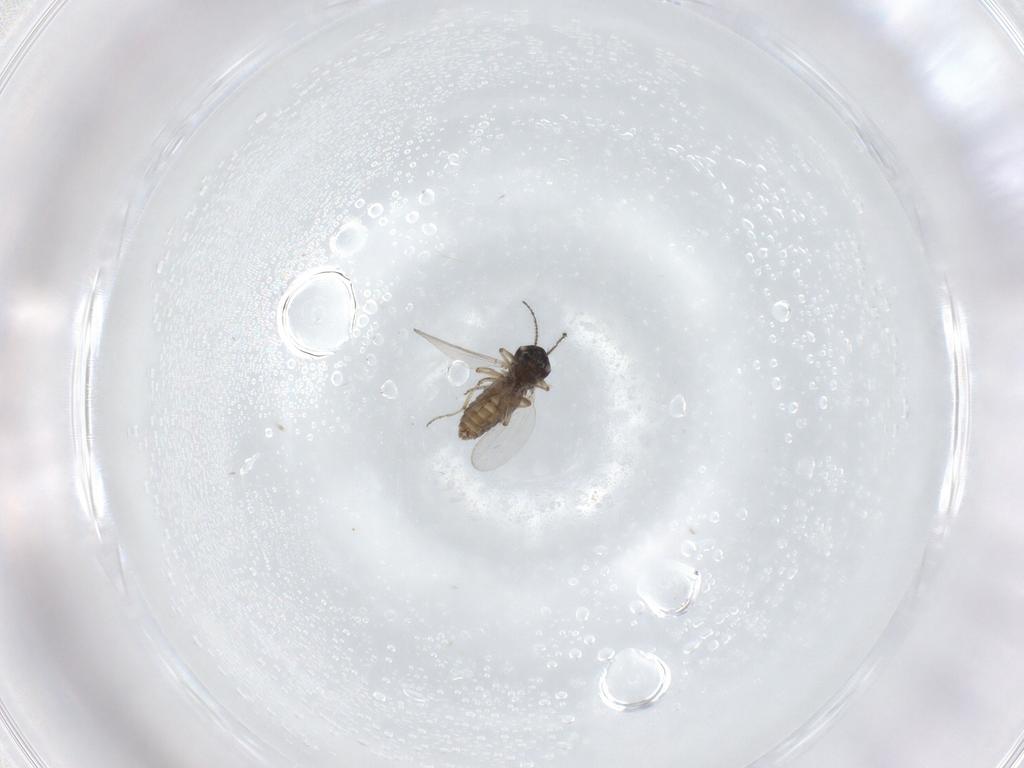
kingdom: Animalia
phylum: Arthropoda
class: Insecta
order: Diptera
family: Ceratopogonidae
